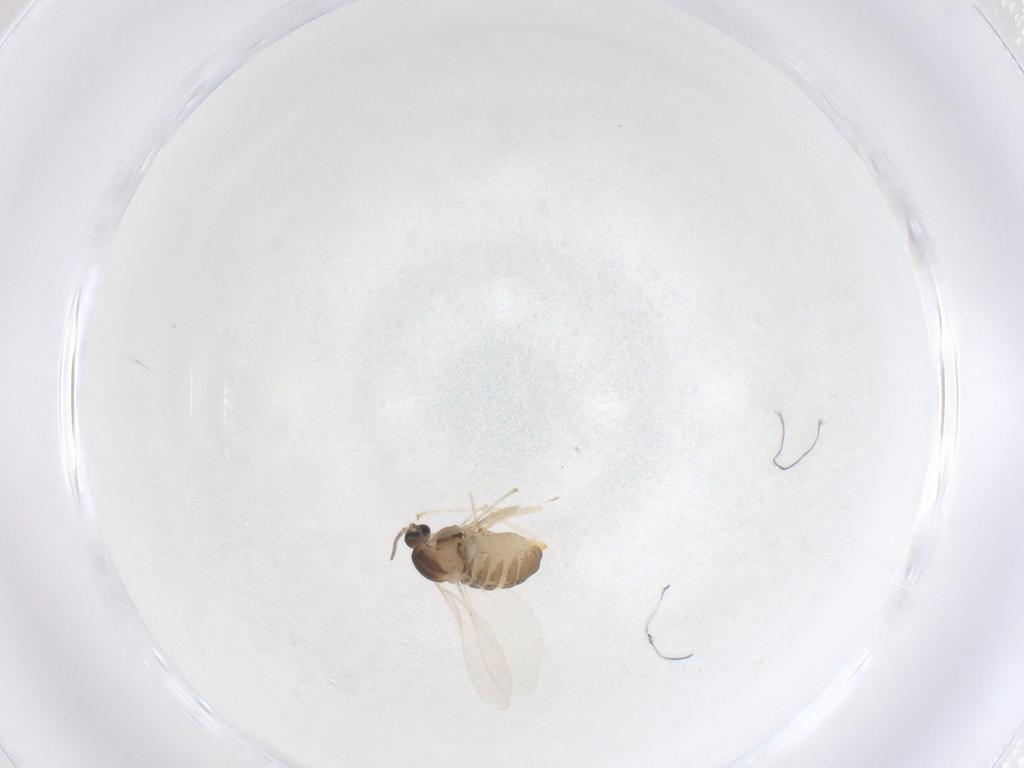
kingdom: Animalia
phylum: Arthropoda
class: Insecta
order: Diptera
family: Cecidomyiidae
